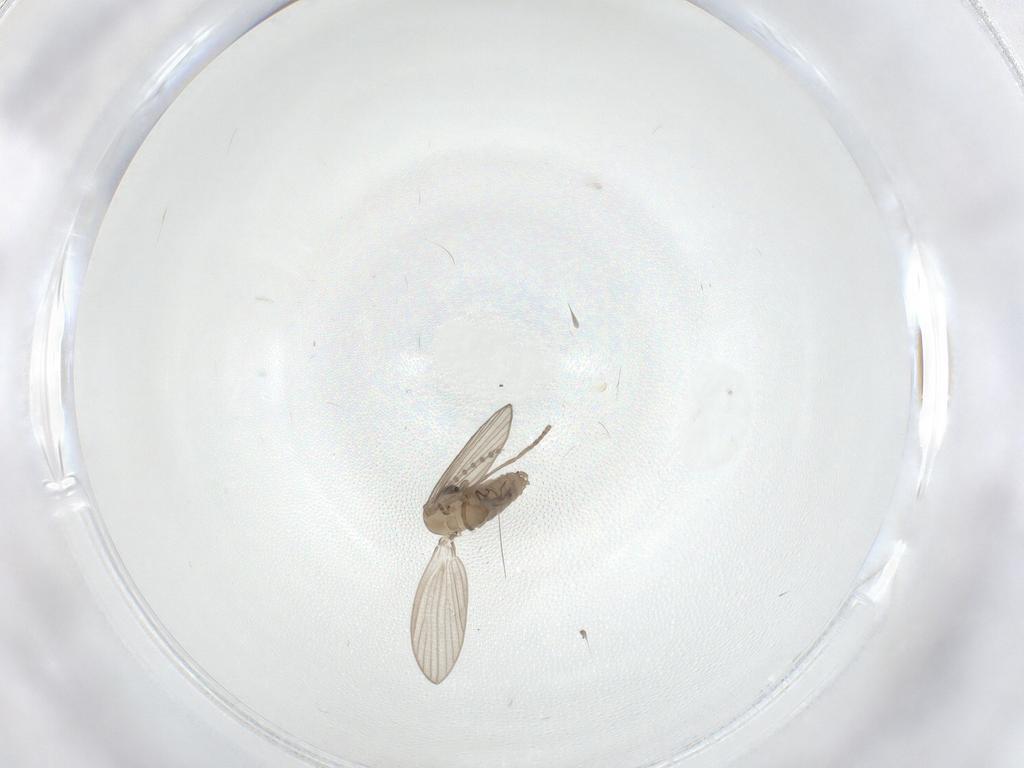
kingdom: Animalia
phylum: Arthropoda
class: Insecta
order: Diptera
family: Psychodidae
